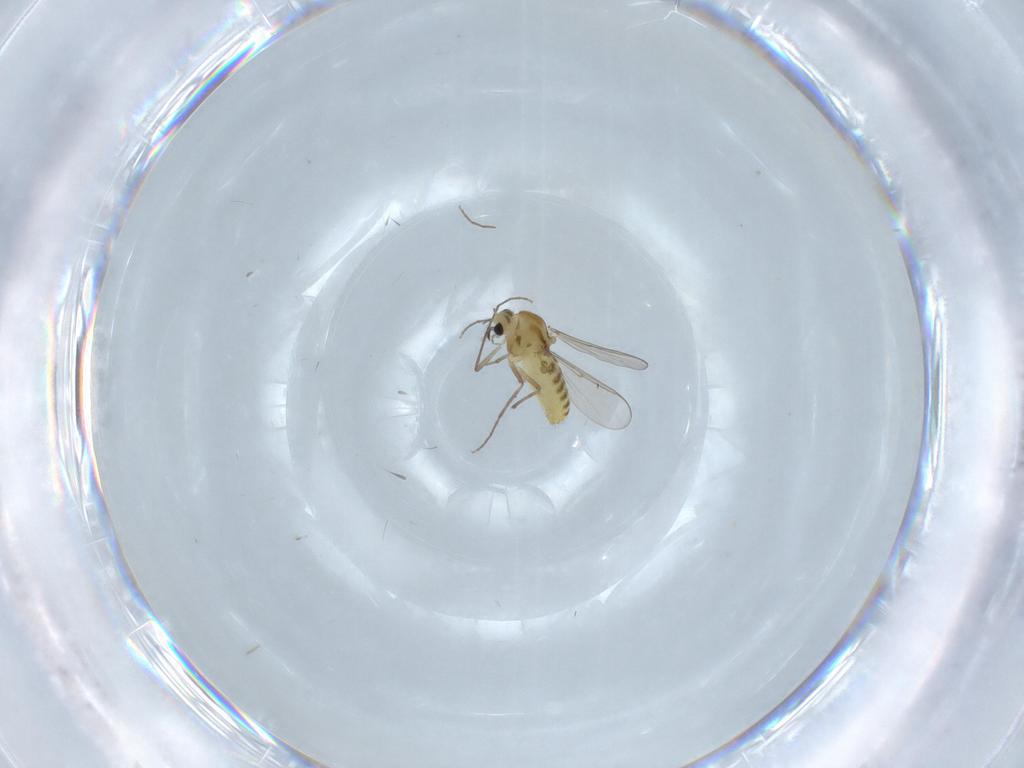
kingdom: Animalia
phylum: Arthropoda
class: Insecta
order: Diptera
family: Chironomidae
